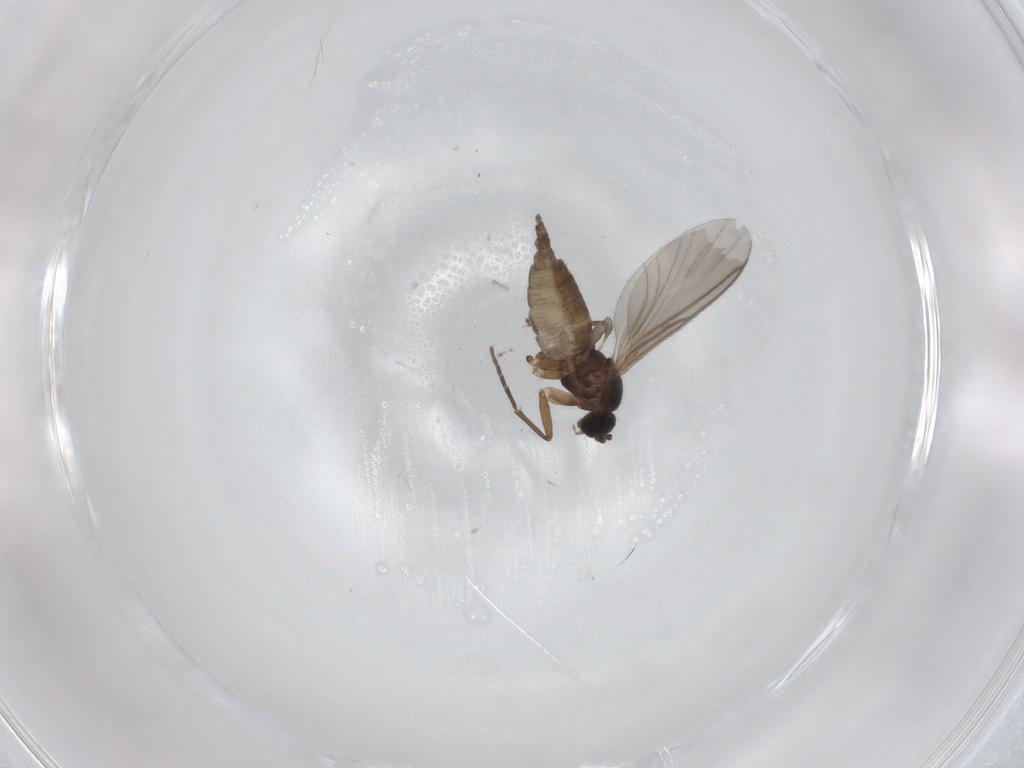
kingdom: Animalia
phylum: Arthropoda
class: Insecta
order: Diptera
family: Sciaridae
